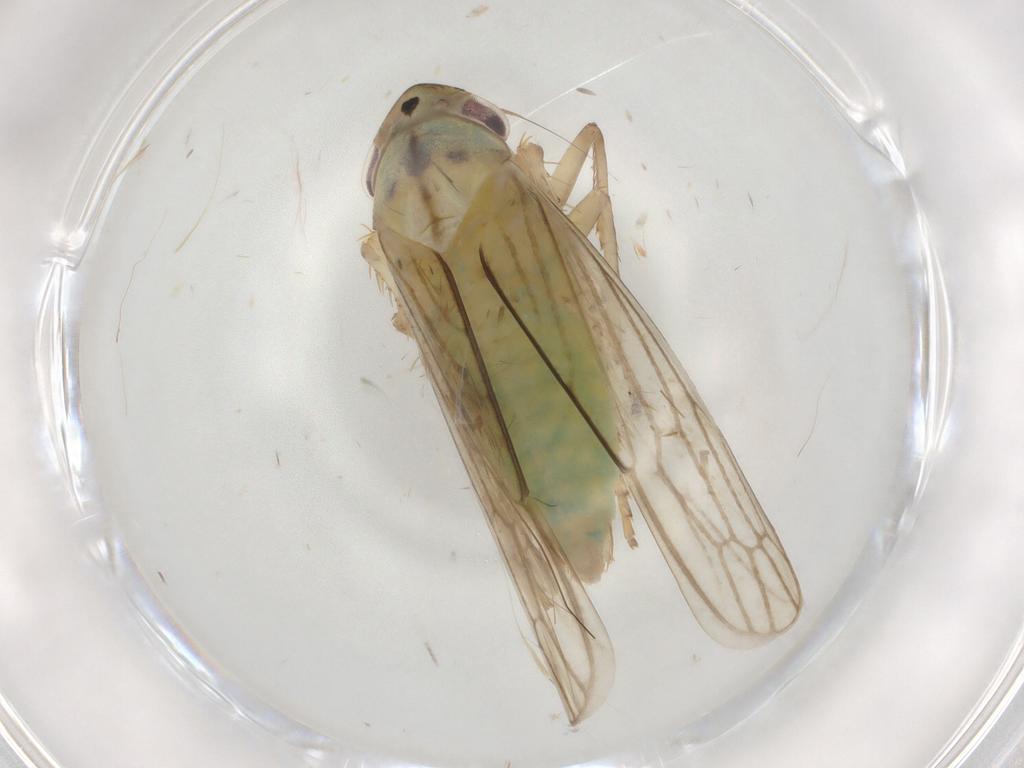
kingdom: Animalia
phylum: Arthropoda
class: Insecta
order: Hemiptera
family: Cicadellidae
